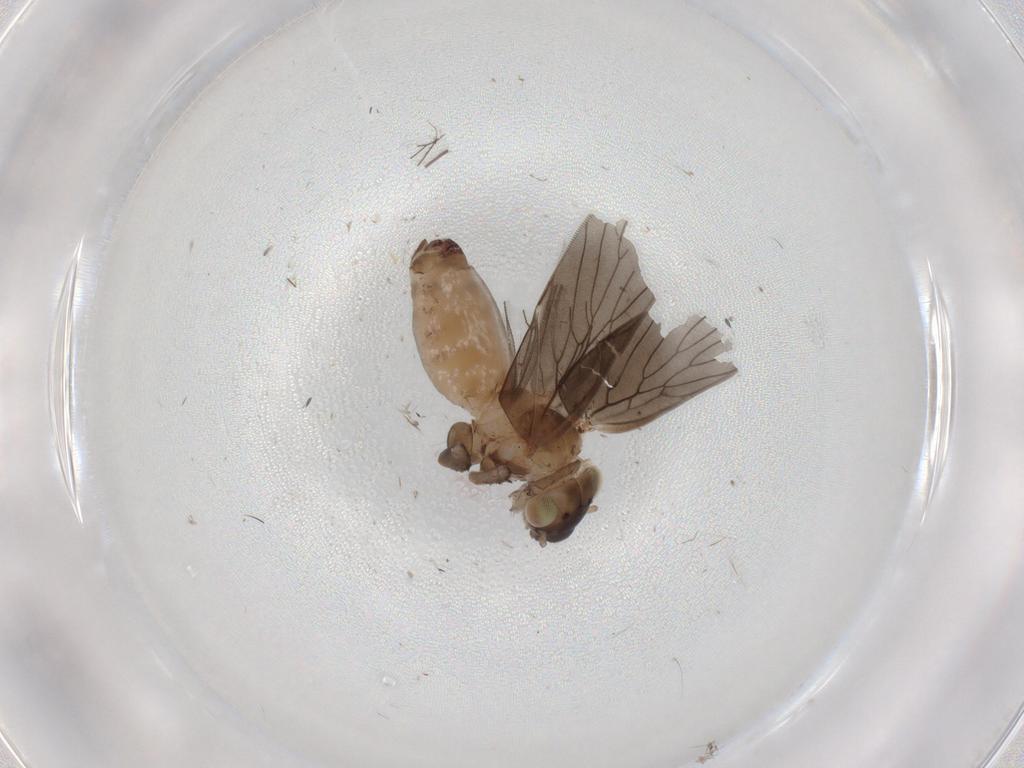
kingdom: Animalia
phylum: Arthropoda
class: Insecta
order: Psocodea
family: Lepidopsocidae
